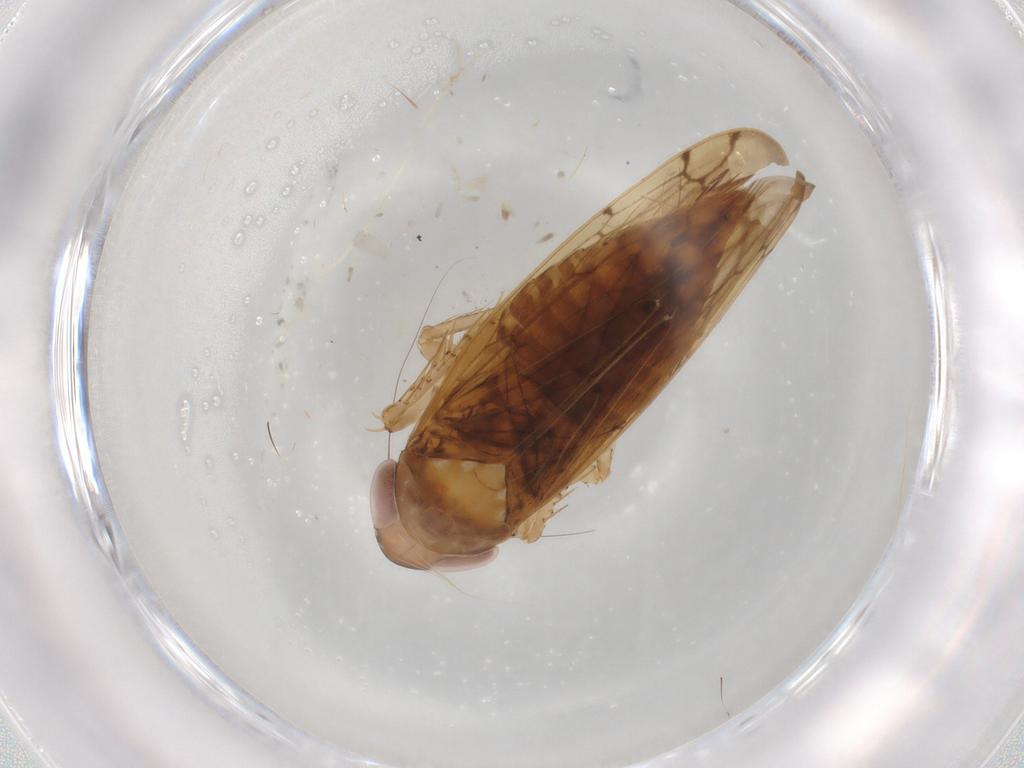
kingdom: Animalia
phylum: Arthropoda
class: Insecta
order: Hemiptera
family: Cicadellidae
